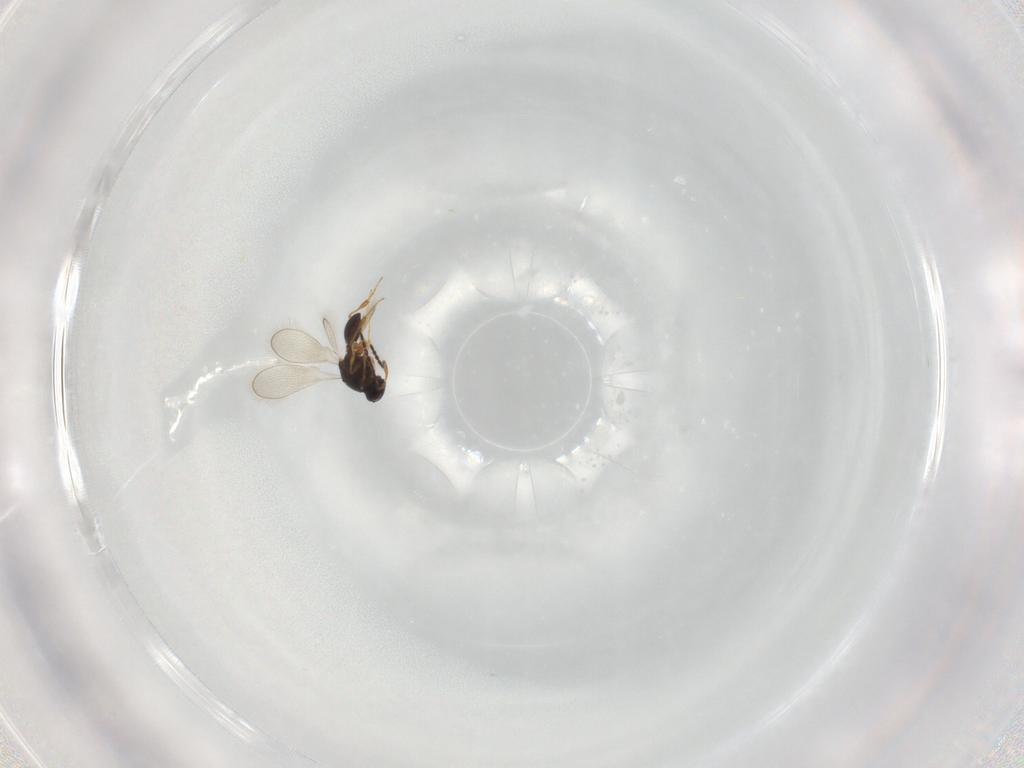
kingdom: Animalia
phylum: Arthropoda
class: Insecta
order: Hymenoptera
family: Platygastridae
